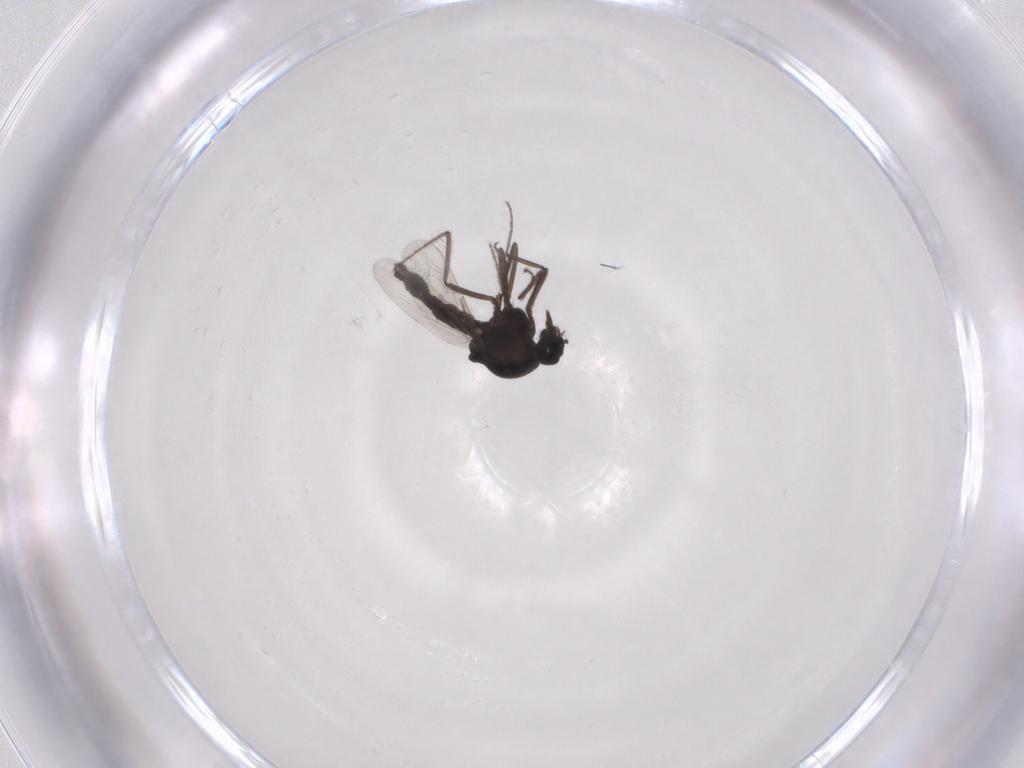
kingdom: Animalia
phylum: Arthropoda
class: Insecta
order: Diptera
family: Ceratopogonidae
